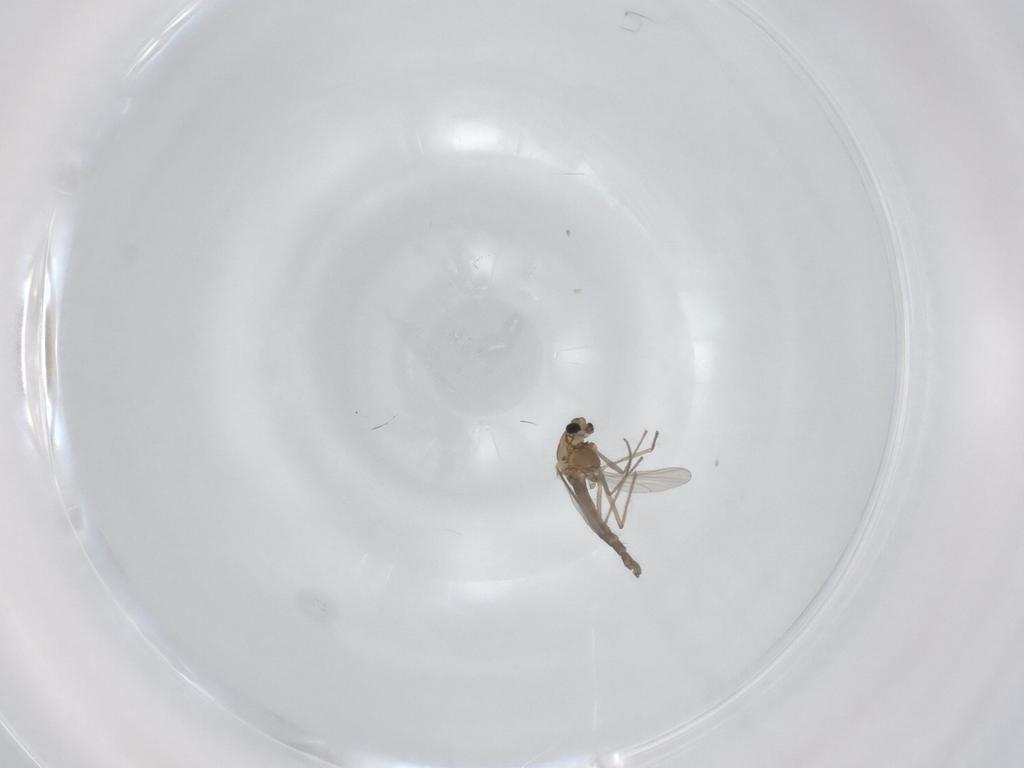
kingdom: Animalia
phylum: Arthropoda
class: Insecta
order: Diptera
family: Chironomidae
